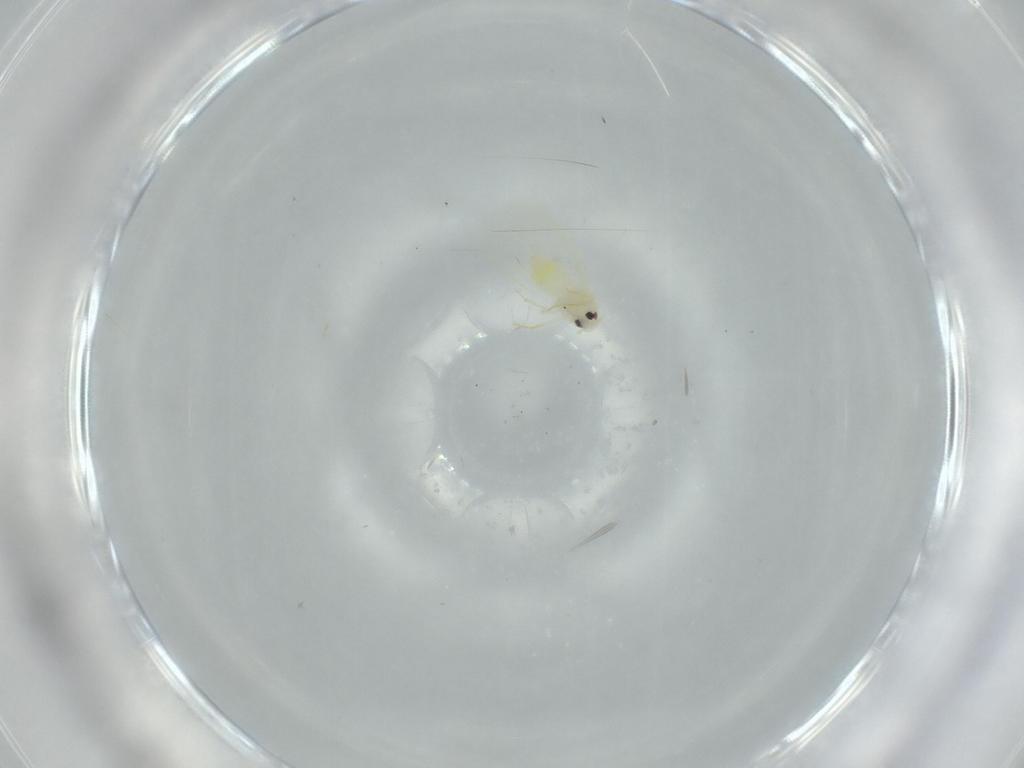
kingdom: Animalia
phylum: Arthropoda
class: Insecta
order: Hemiptera
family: Aleyrodidae
